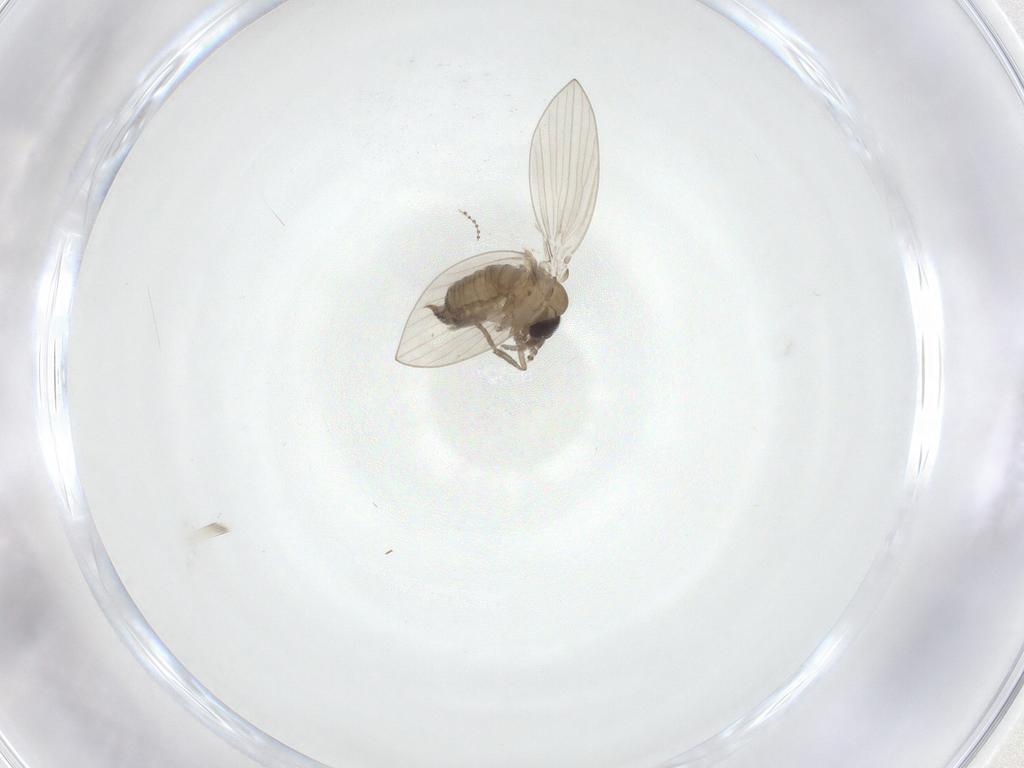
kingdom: Animalia
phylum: Arthropoda
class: Insecta
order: Diptera
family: Cecidomyiidae
